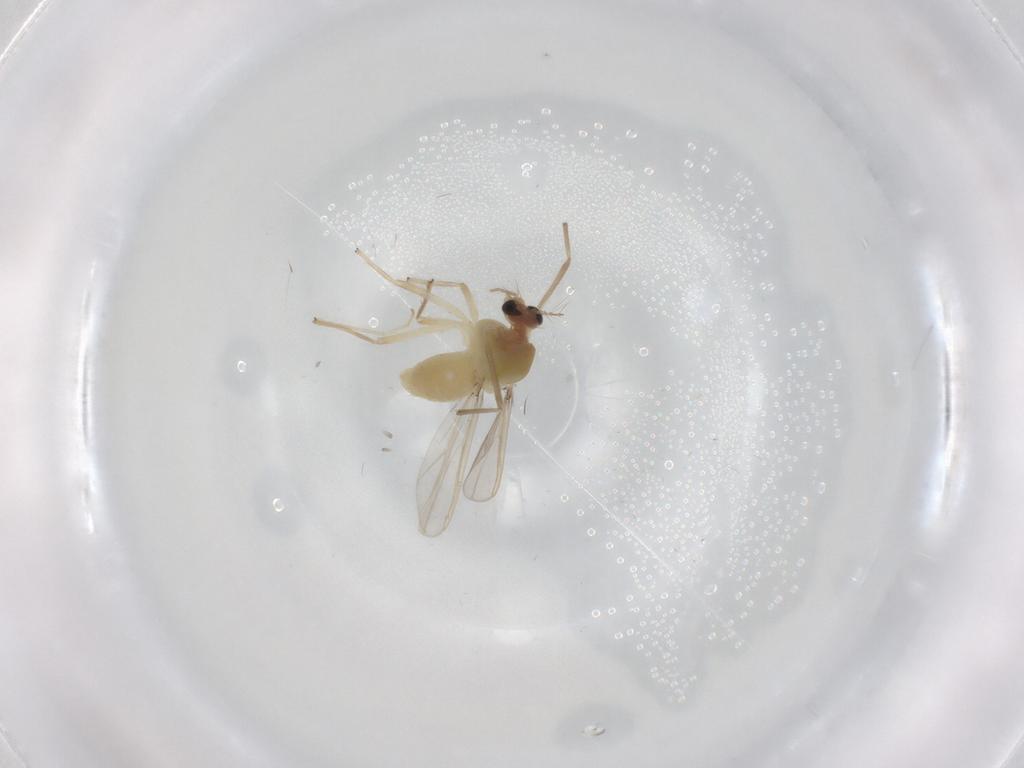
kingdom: Animalia
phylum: Arthropoda
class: Insecta
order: Diptera
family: Chironomidae
